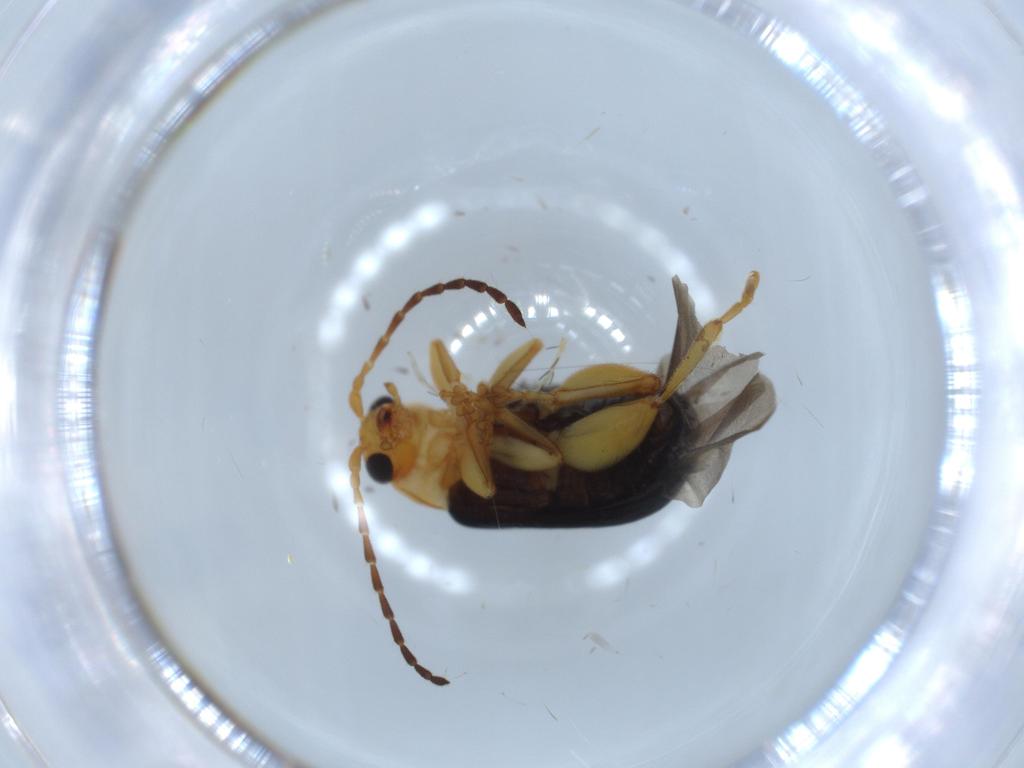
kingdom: Animalia
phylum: Arthropoda
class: Insecta
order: Coleoptera
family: Chrysomelidae
